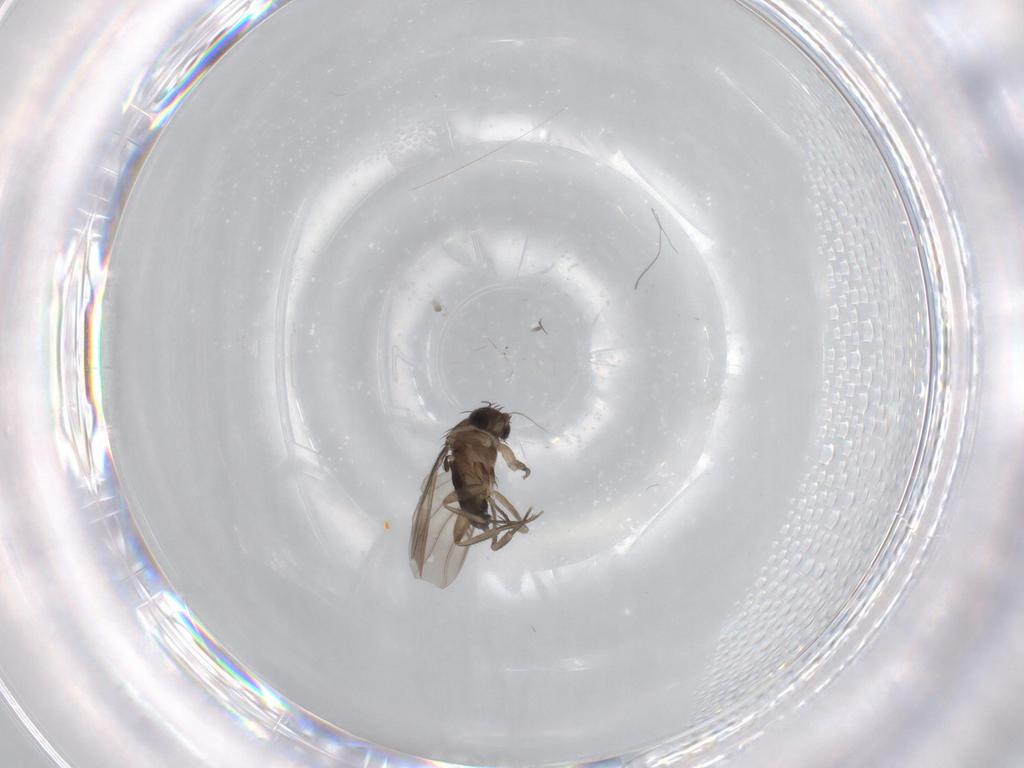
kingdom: Animalia
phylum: Arthropoda
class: Insecta
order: Diptera
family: Phoridae
